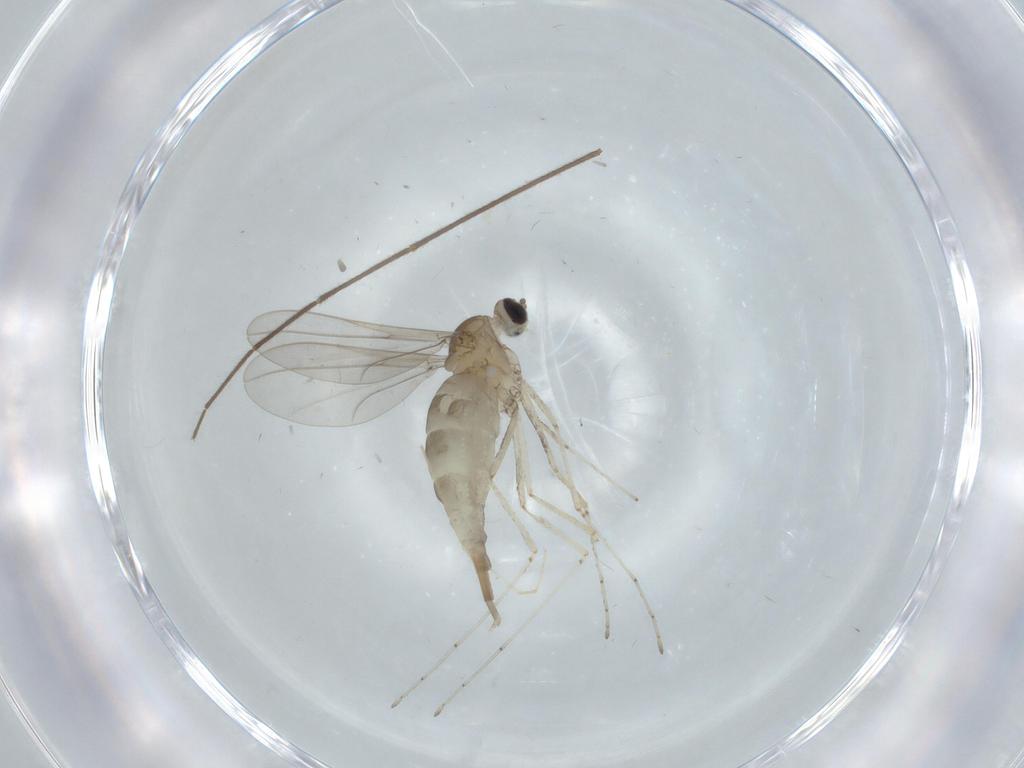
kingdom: Animalia
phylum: Arthropoda
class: Insecta
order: Diptera
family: Cecidomyiidae
